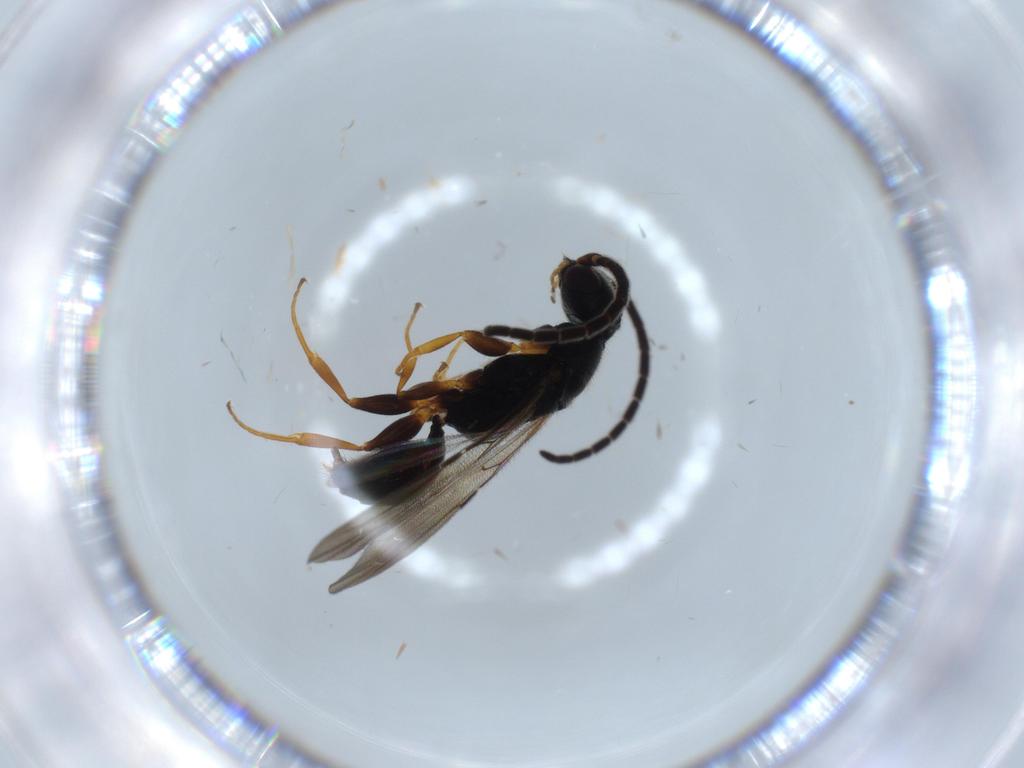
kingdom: Animalia
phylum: Arthropoda
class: Insecta
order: Hymenoptera
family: Bethylidae
